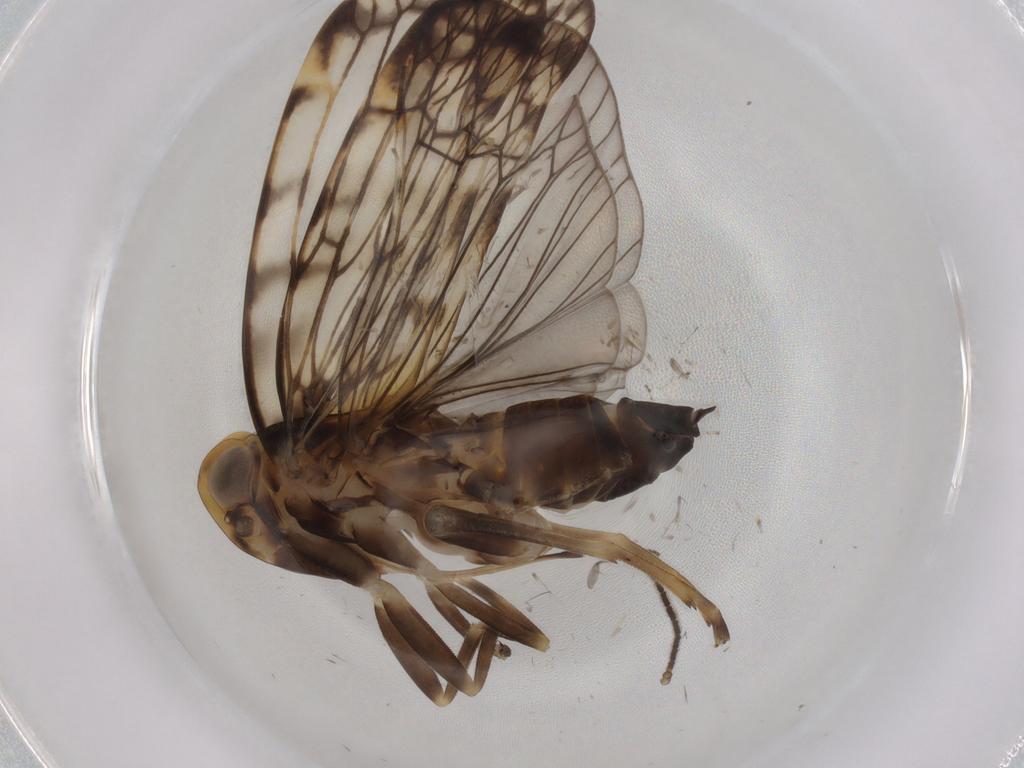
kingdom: Animalia
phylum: Arthropoda
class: Insecta
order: Hemiptera
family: Cixiidae
